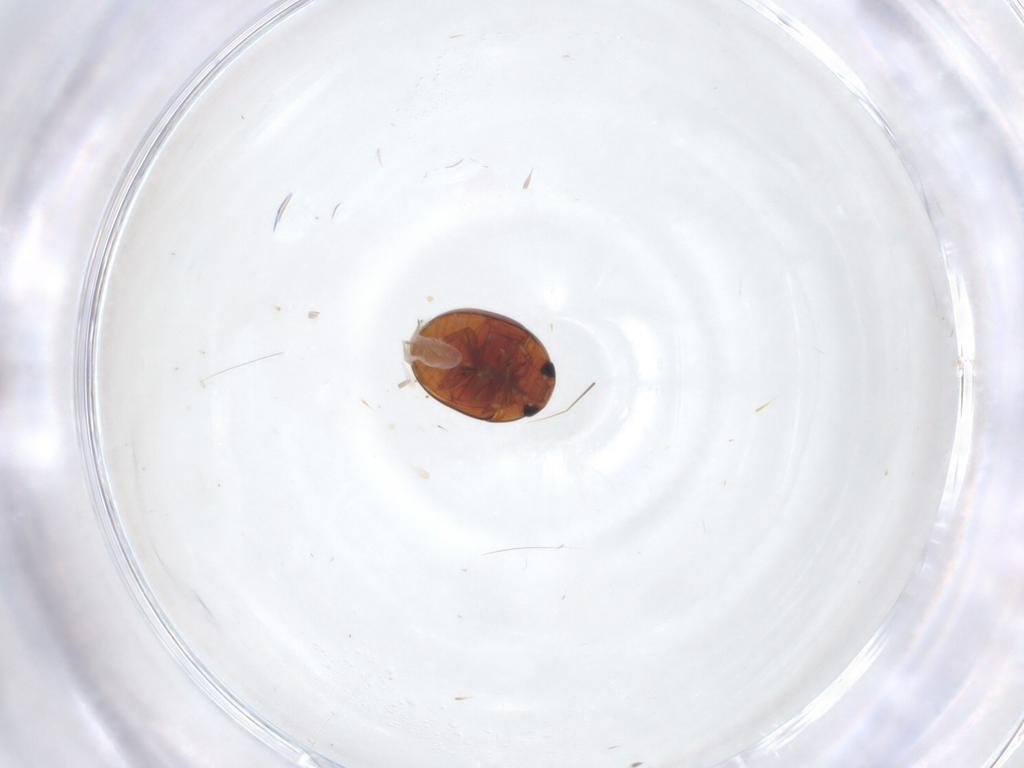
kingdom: Animalia
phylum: Arthropoda
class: Insecta
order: Coleoptera
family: Phalacridae
